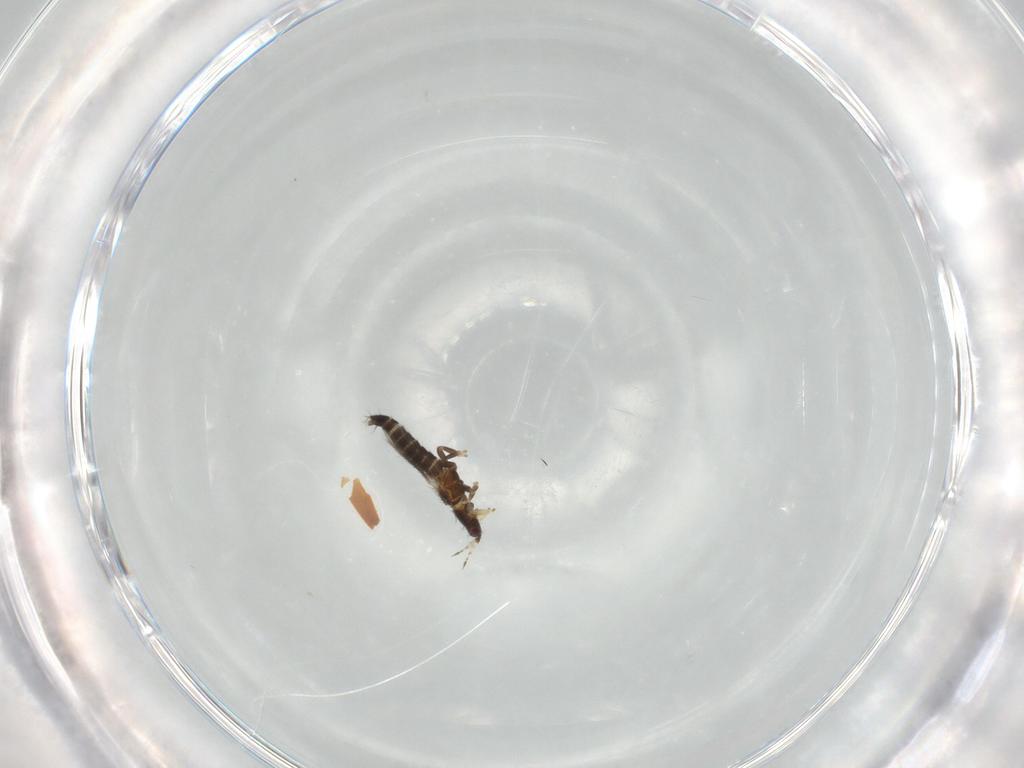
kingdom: Animalia
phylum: Arthropoda
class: Insecta
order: Thysanoptera
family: Thripidae
